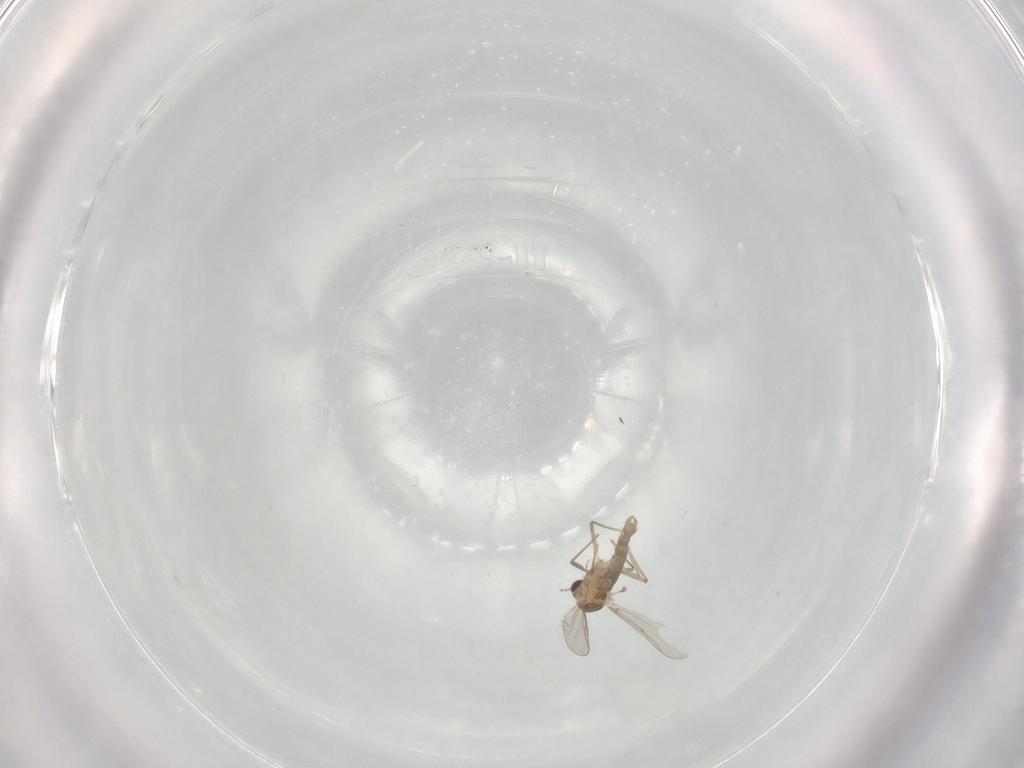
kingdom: Animalia
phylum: Arthropoda
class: Insecta
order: Diptera
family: Chironomidae
